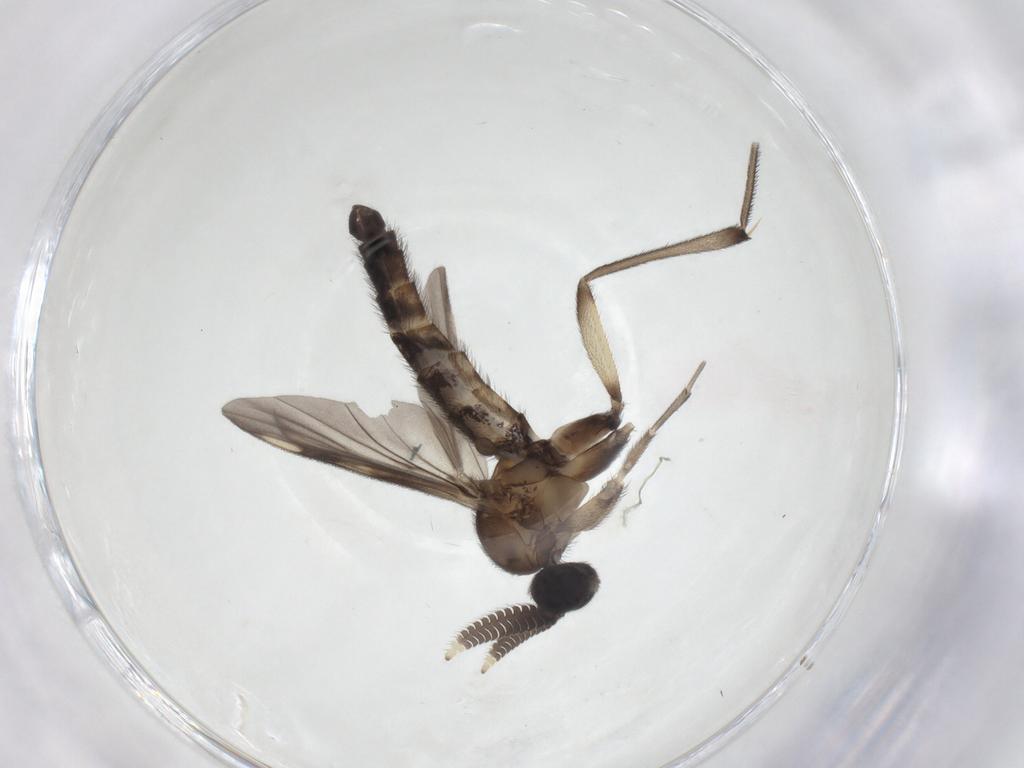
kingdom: Animalia
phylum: Arthropoda
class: Insecta
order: Diptera
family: Keroplatidae
